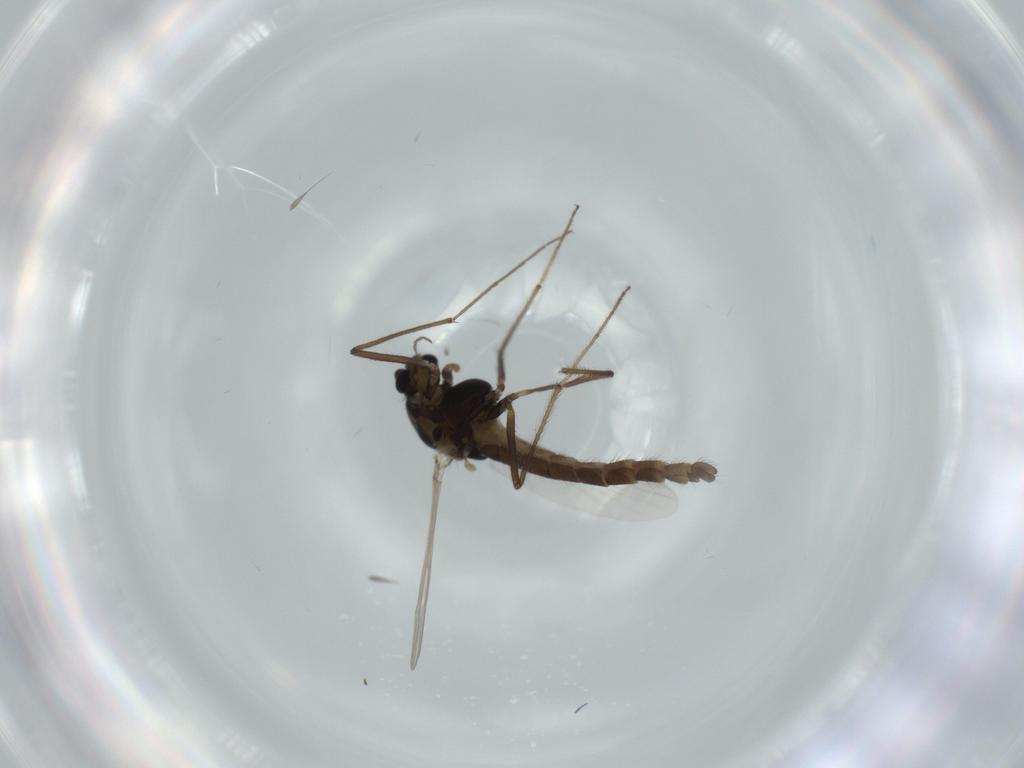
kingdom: Animalia
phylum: Arthropoda
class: Insecta
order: Diptera
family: Chironomidae
